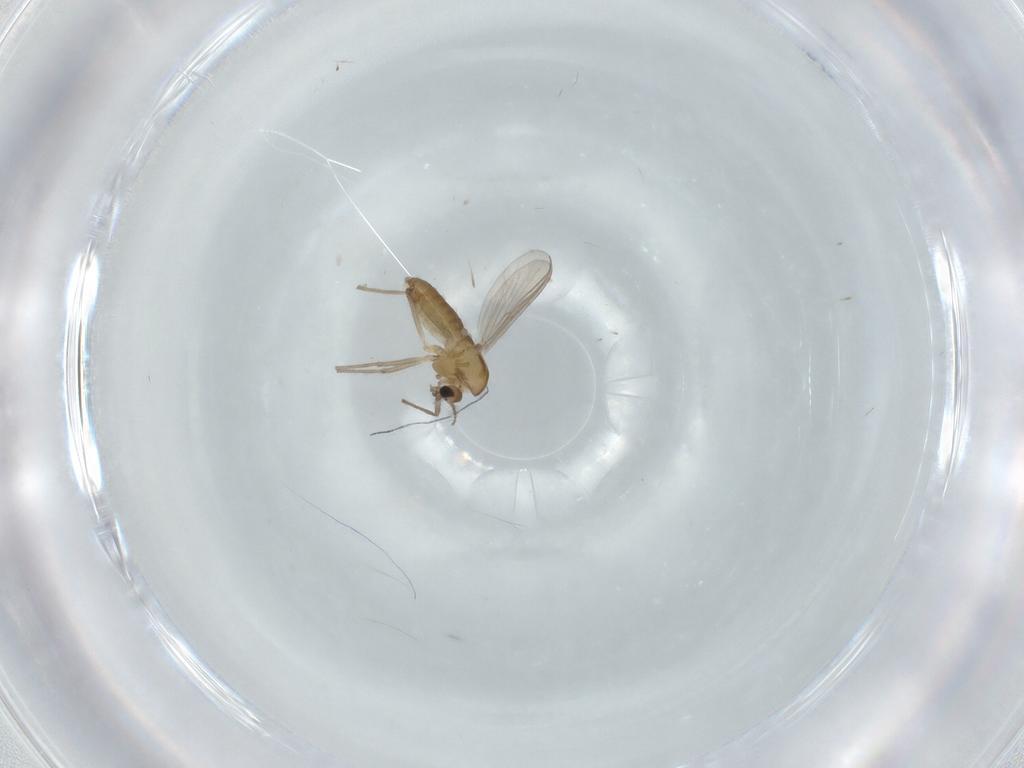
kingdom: Animalia
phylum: Arthropoda
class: Insecta
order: Diptera
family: Chironomidae
